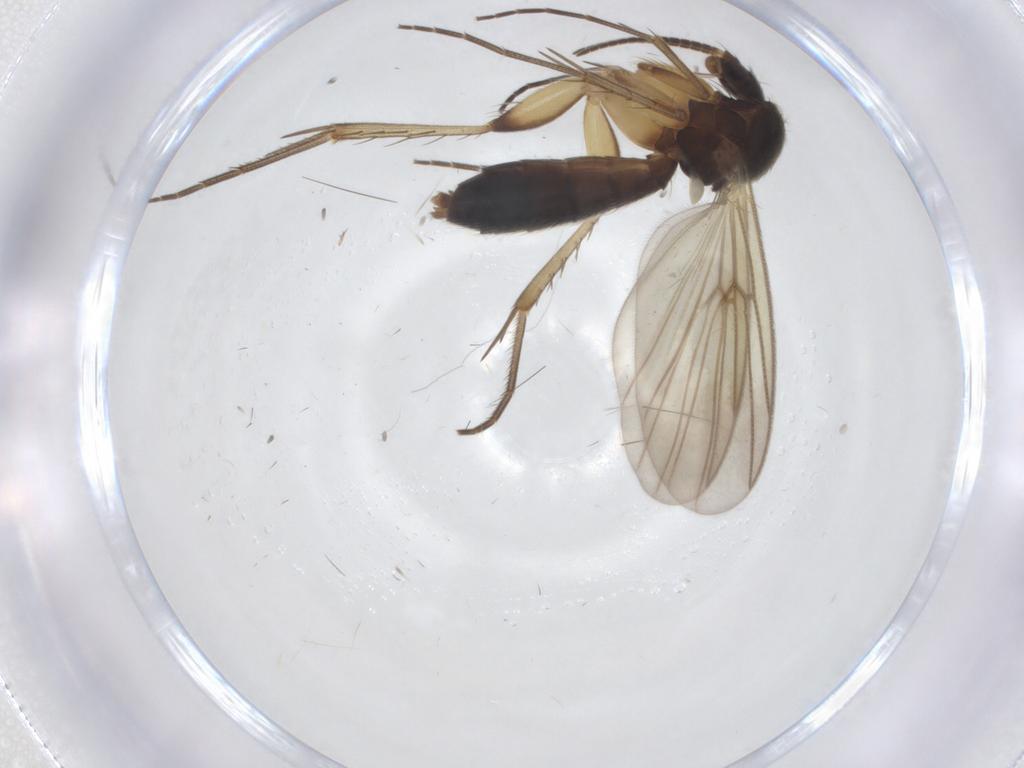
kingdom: Animalia
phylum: Arthropoda
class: Insecta
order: Diptera
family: Mycetophilidae
